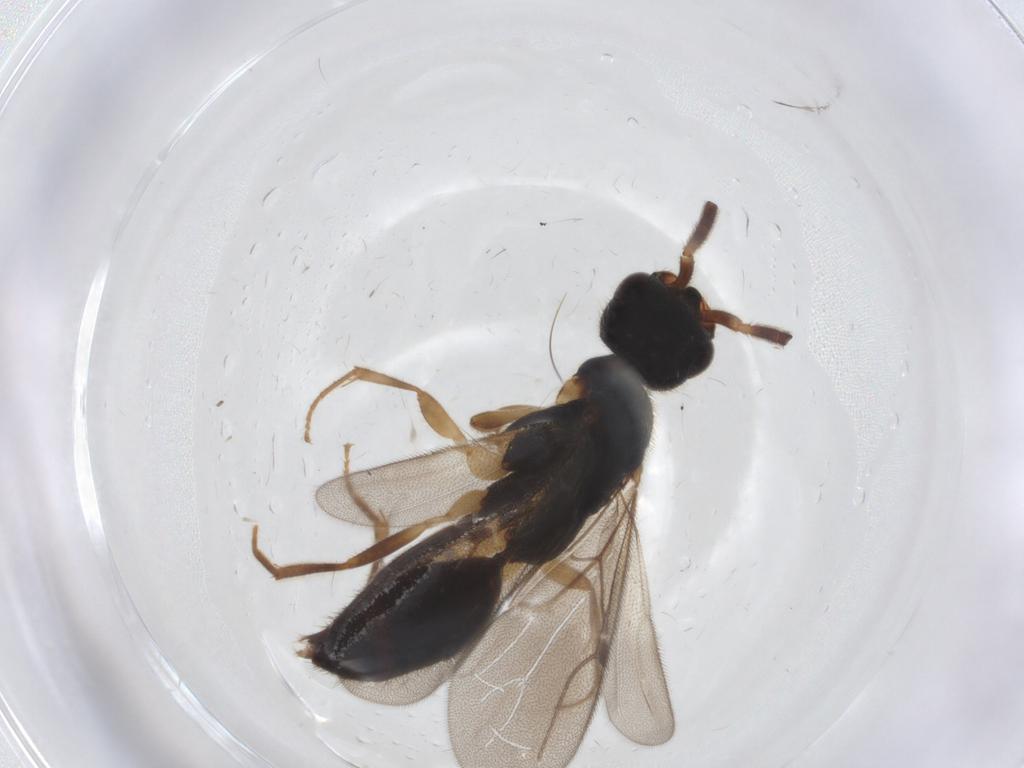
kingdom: Animalia
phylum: Arthropoda
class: Insecta
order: Hymenoptera
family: Bethylidae
